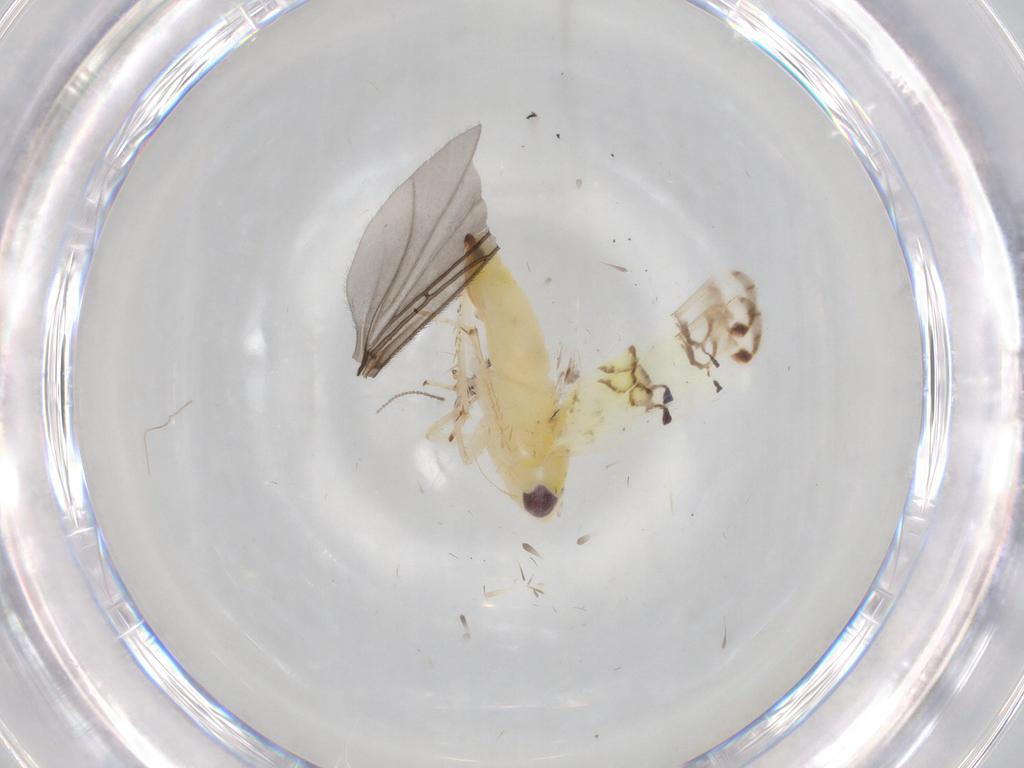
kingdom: Animalia
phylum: Arthropoda
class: Insecta
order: Hemiptera
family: Cicadellidae
